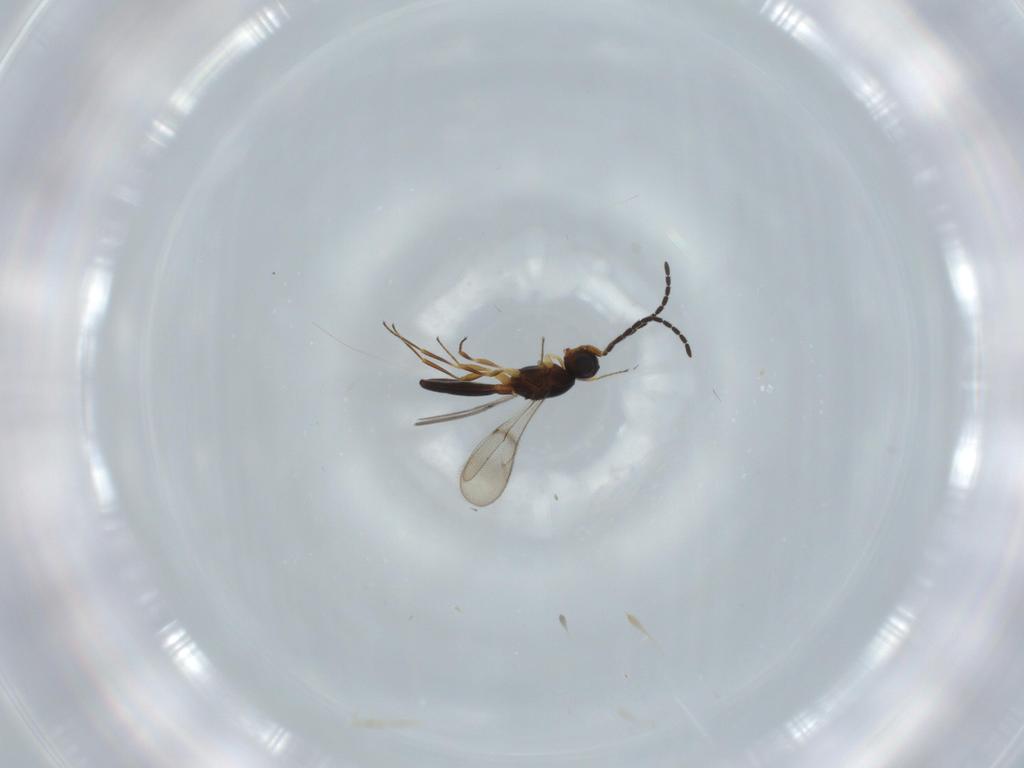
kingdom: Animalia
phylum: Arthropoda
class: Insecta
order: Hymenoptera
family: Scelionidae
